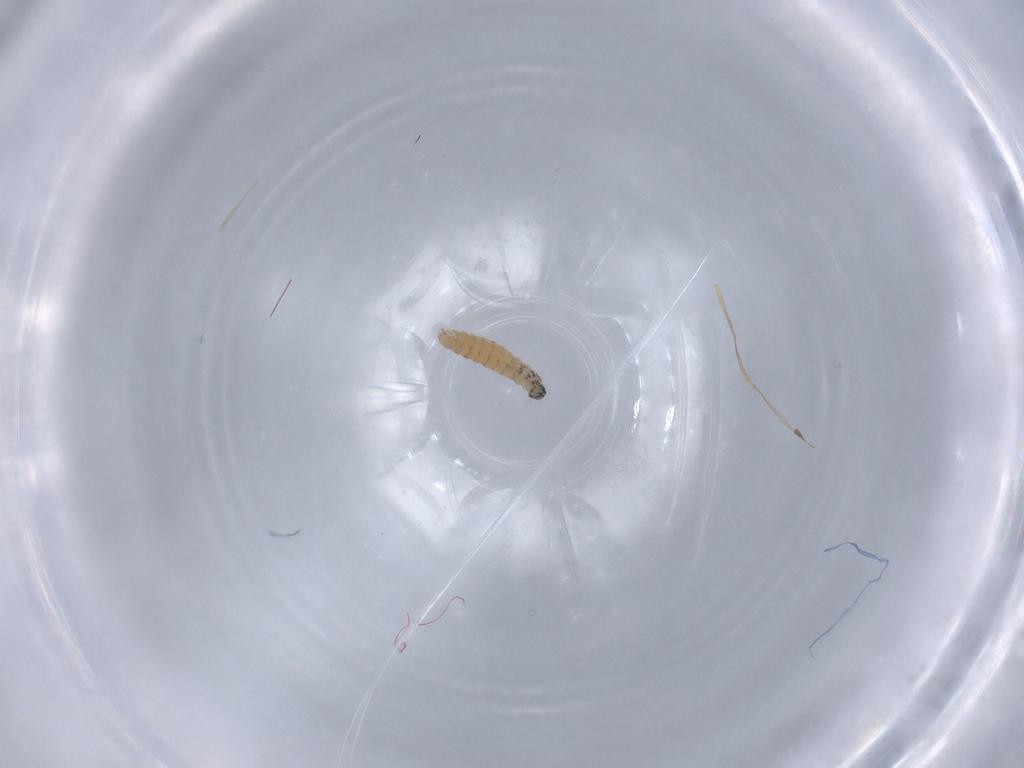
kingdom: Animalia
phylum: Arthropoda
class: Insecta
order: Diptera
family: Sarcophagidae
